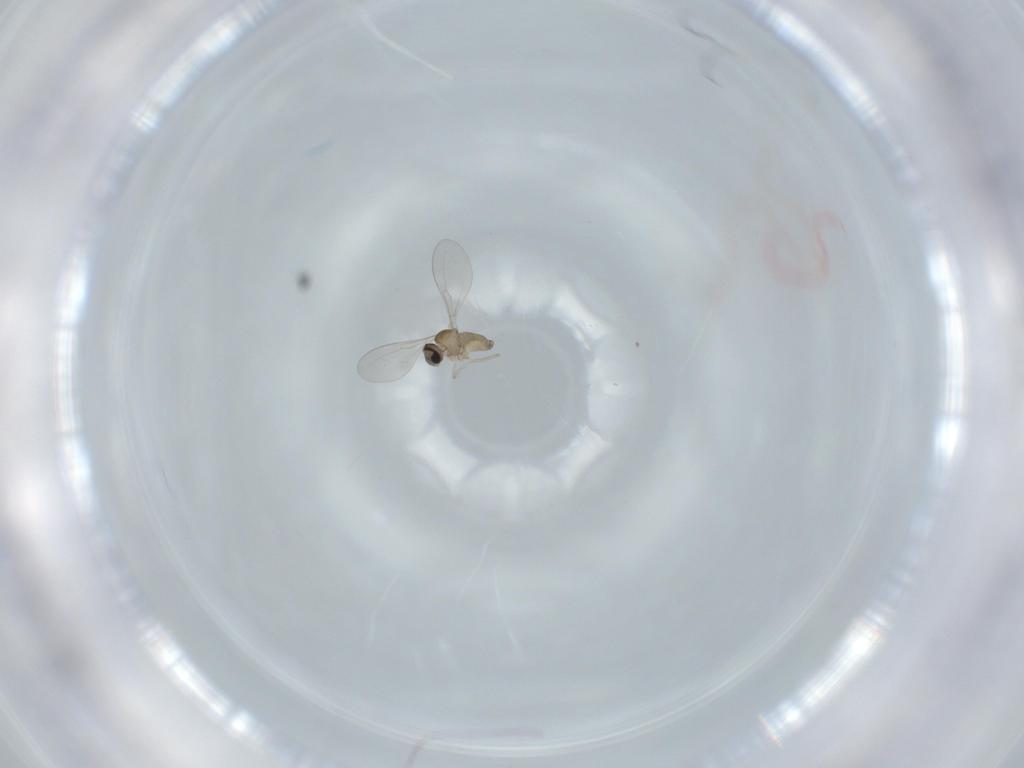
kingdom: Animalia
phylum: Arthropoda
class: Insecta
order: Diptera
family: Cecidomyiidae
